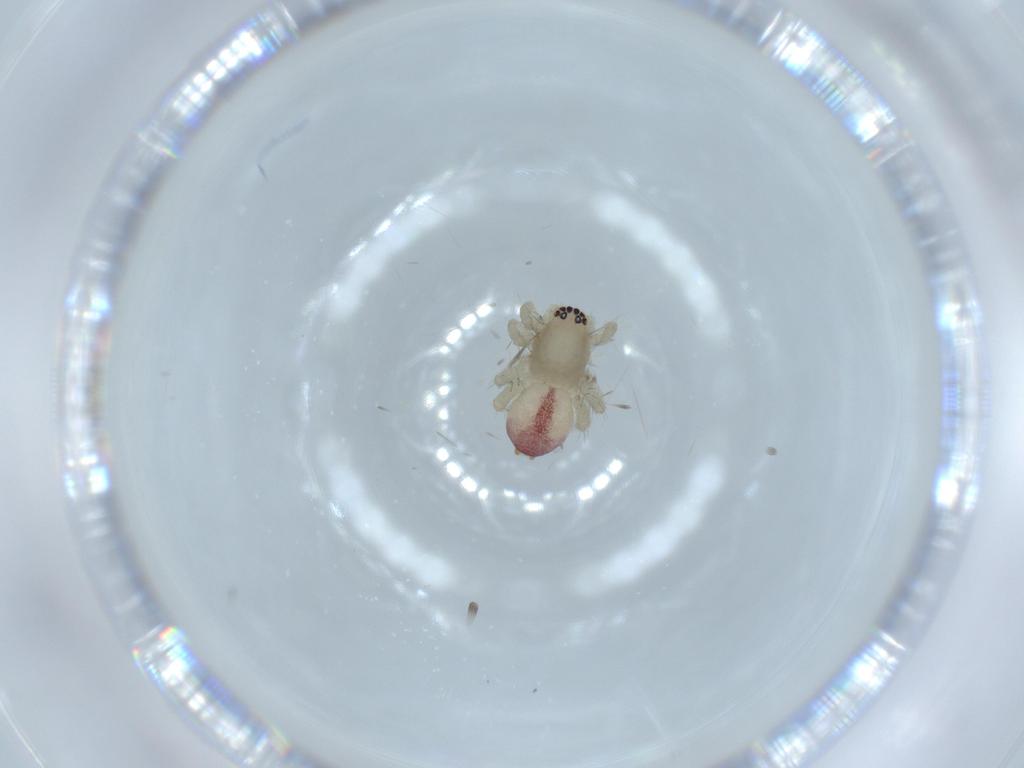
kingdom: Animalia
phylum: Arthropoda
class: Arachnida
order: Araneae
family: Clubionidae
